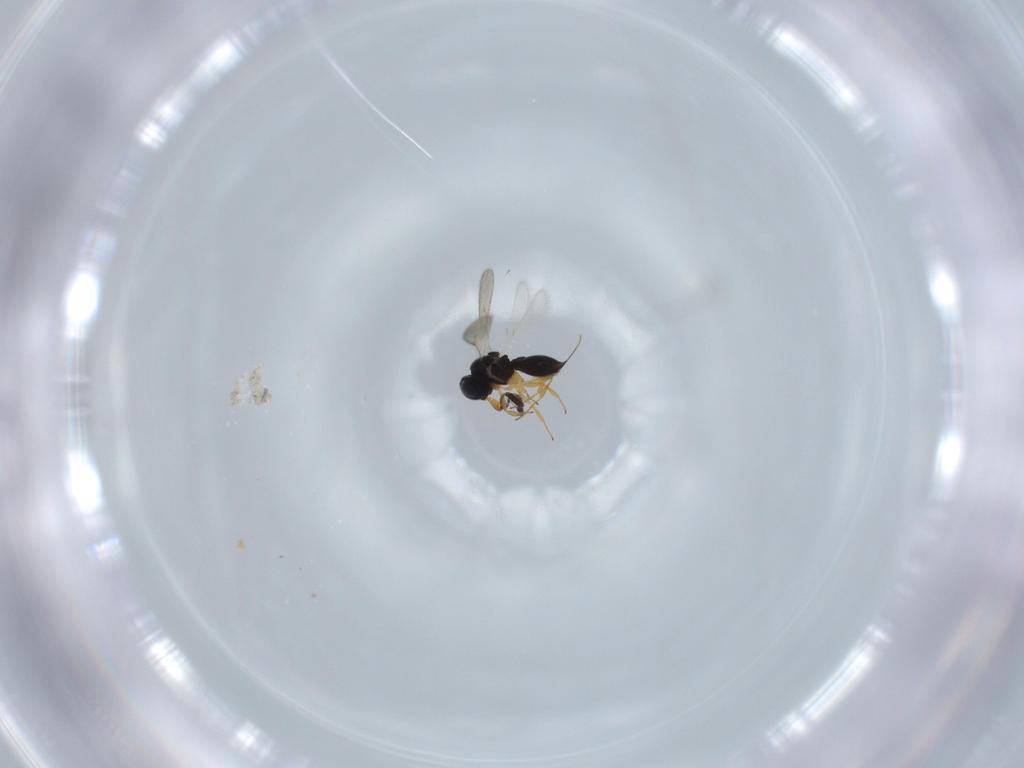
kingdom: Animalia
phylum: Arthropoda
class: Insecta
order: Hymenoptera
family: Scelionidae
